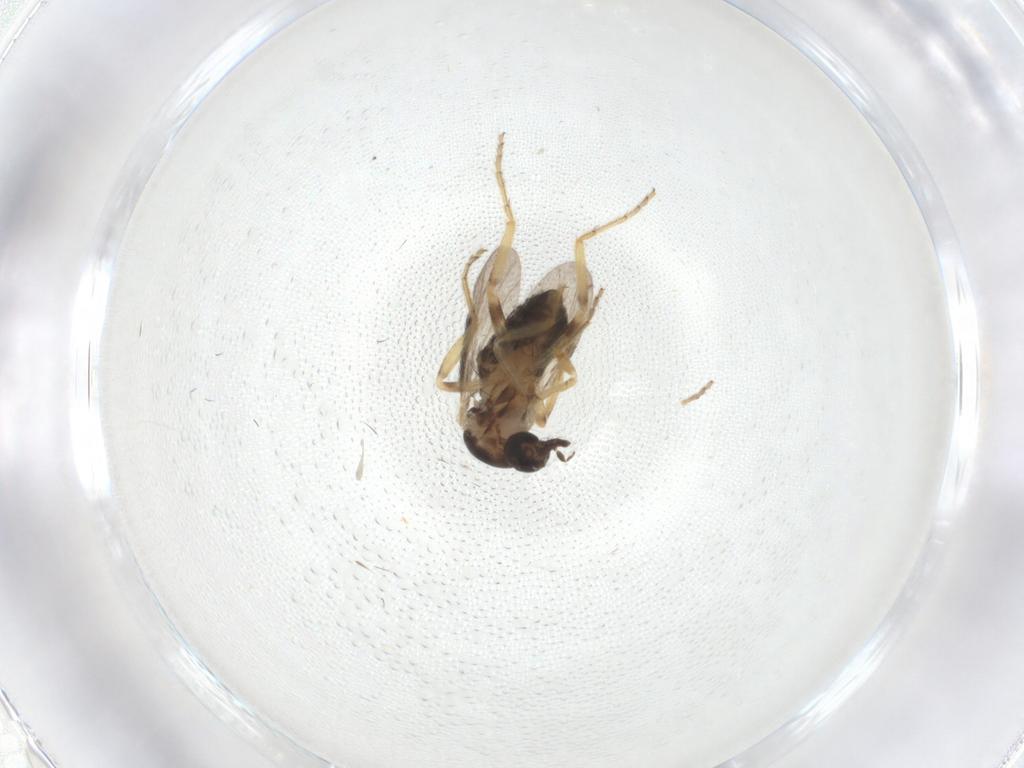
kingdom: Animalia
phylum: Arthropoda
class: Insecta
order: Diptera
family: Ceratopogonidae
